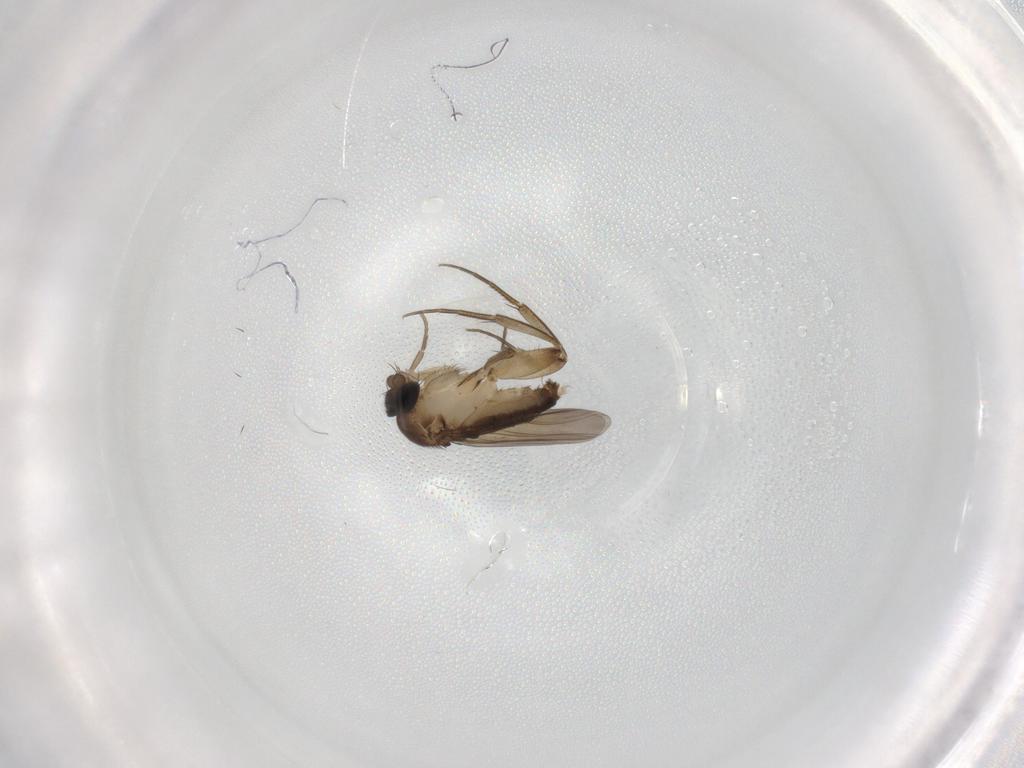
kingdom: Animalia
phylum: Arthropoda
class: Insecta
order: Diptera
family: Phoridae
